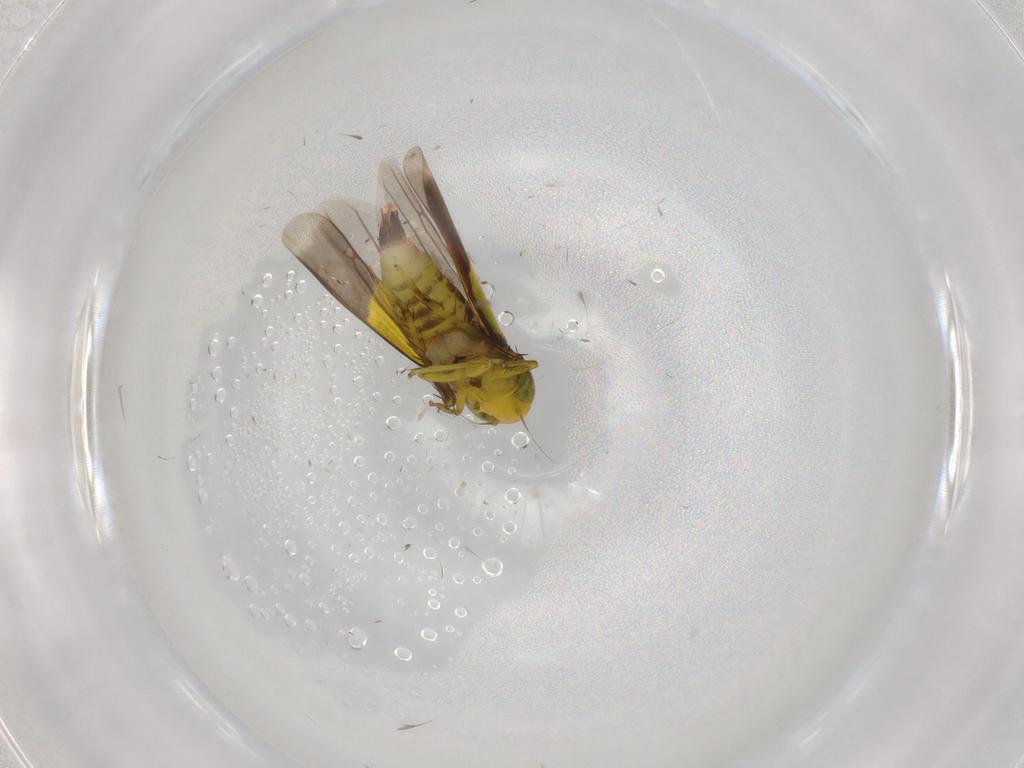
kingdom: Animalia
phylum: Arthropoda
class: Insecta
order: Hemiptera
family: Cicadellidae
